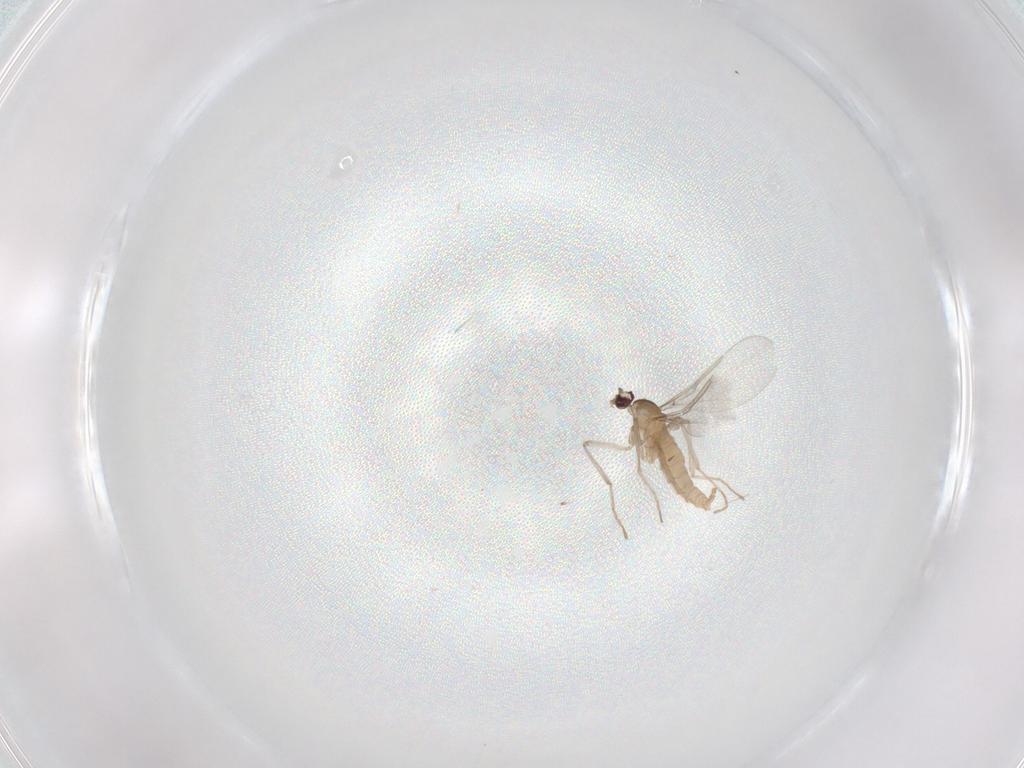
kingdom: Animalia
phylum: Arthropoda
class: Insecta
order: Diptera
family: Cecidomyiidae
